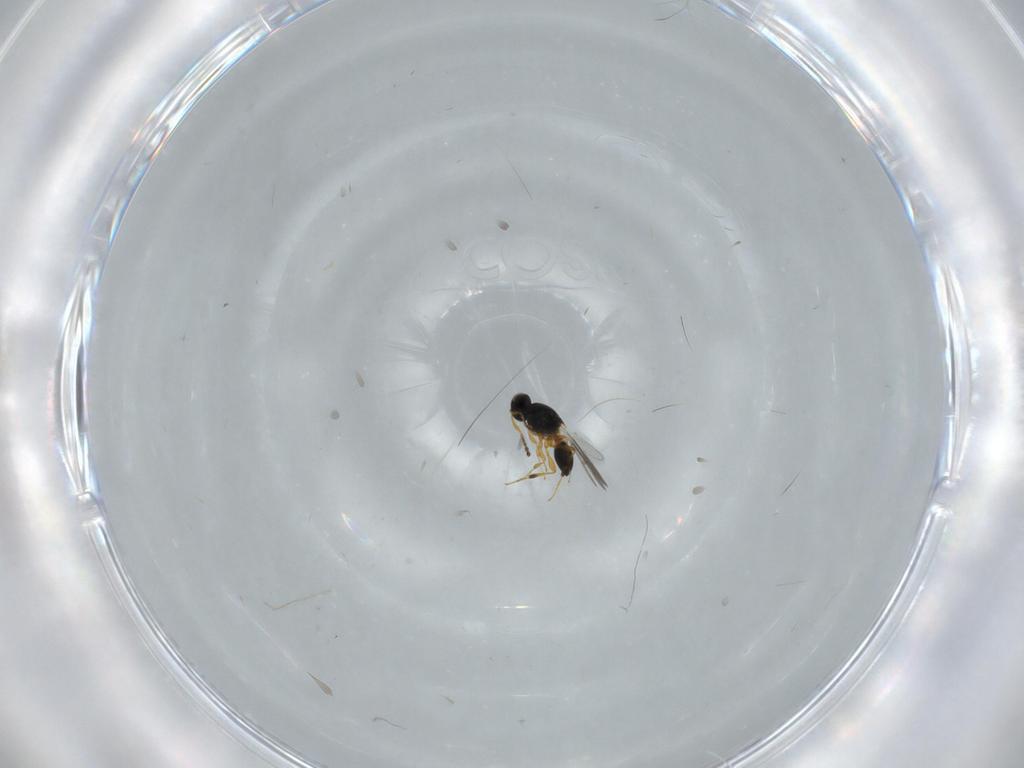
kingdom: Animalia
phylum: Arthropoda
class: Insecta
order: Hymenoptera
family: Platygastridae
